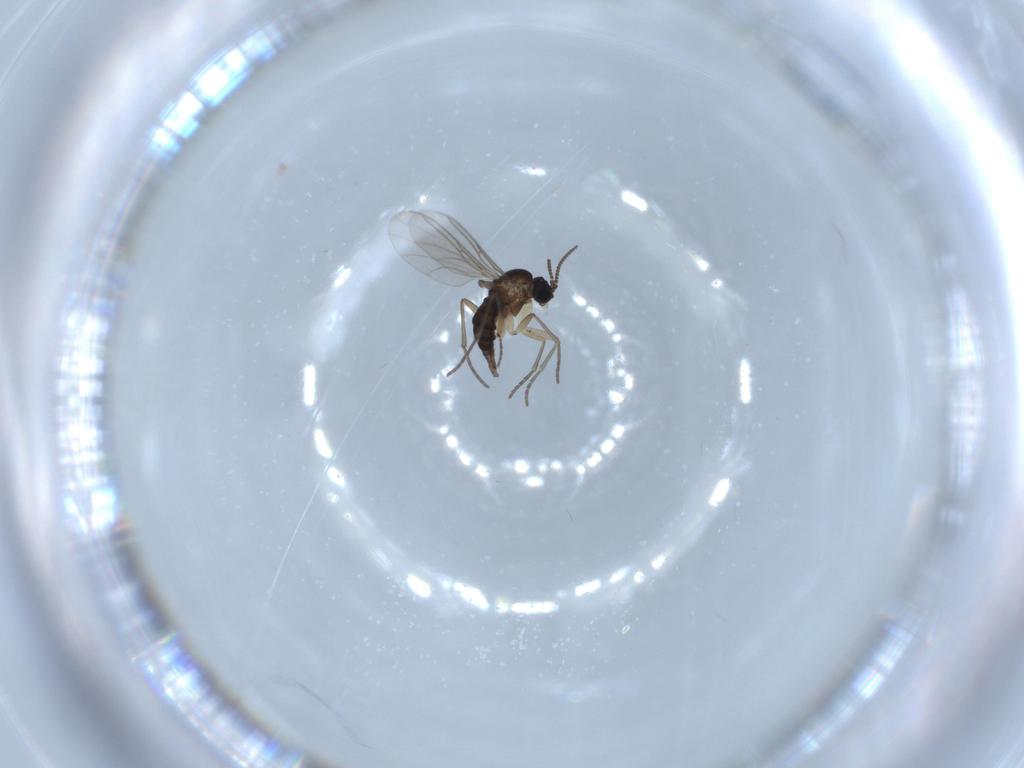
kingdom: Animalia
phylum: Arthropoda
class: Insecta
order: Diptera
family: Sciaridae
